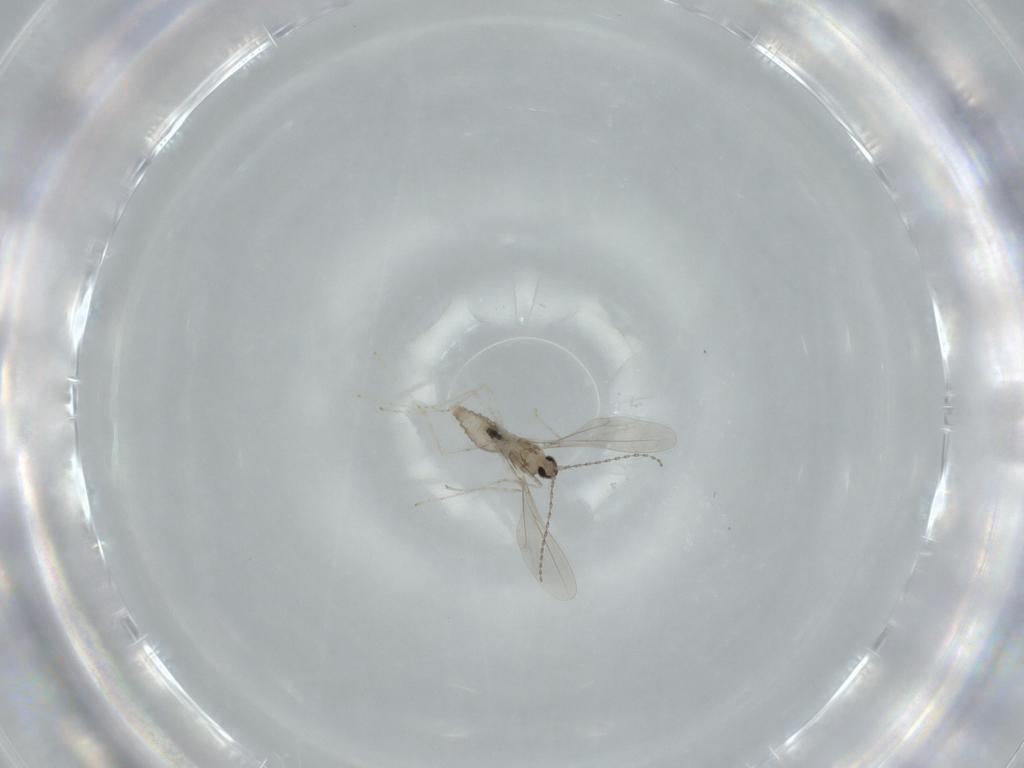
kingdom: Animalia
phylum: Arthropoda
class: Insecta
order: Diptera
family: Cecidomyiidae
